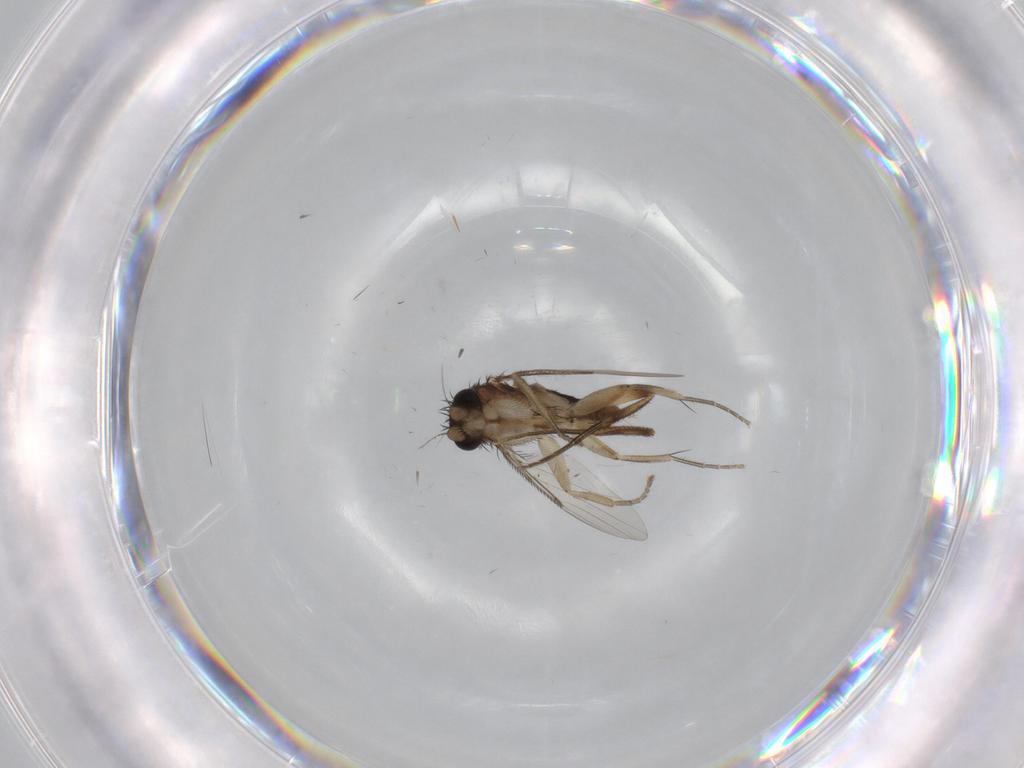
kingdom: Animalia
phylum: Arthropoda
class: Insecta
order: Diptera
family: Phoridae
